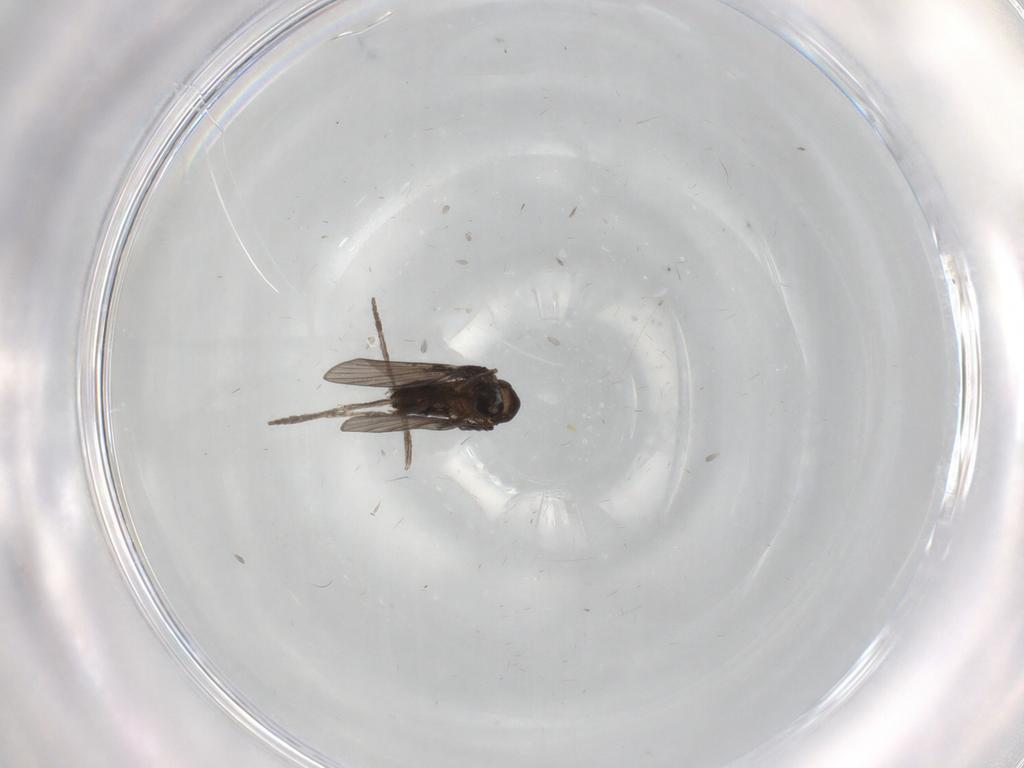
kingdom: Animalia
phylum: Arthropoda
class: Insecta
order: Diptera
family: Psychodidae
